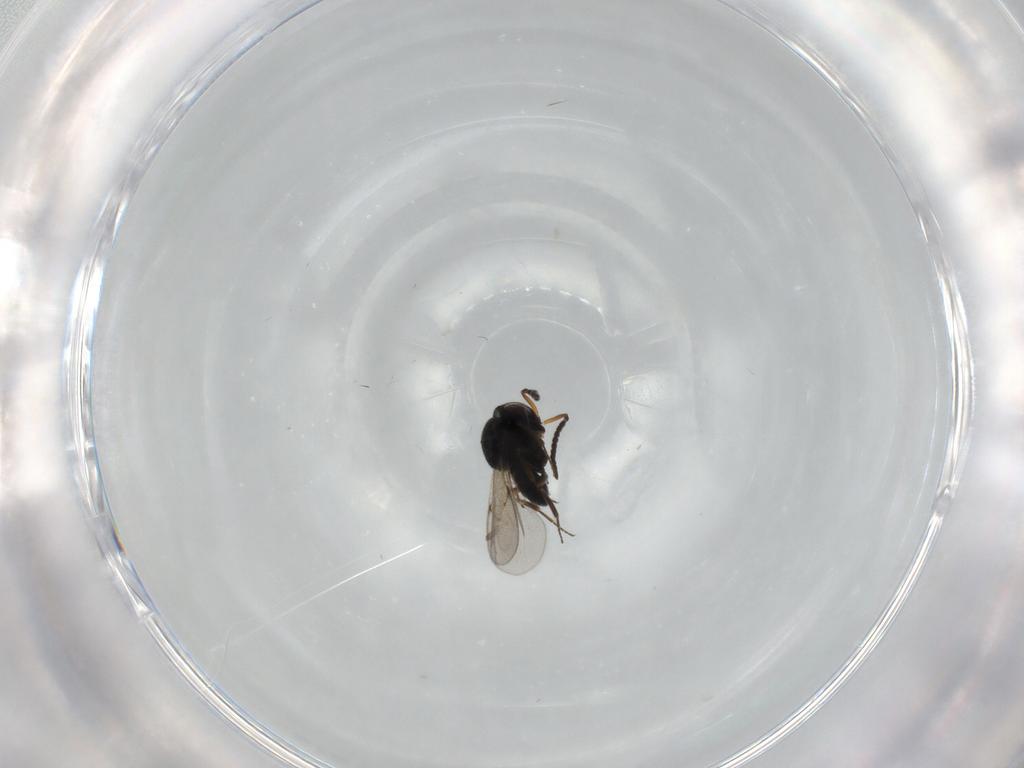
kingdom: Animalia
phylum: Arthropoda
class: Insecta
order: Hymenoptera
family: Scelionidae
